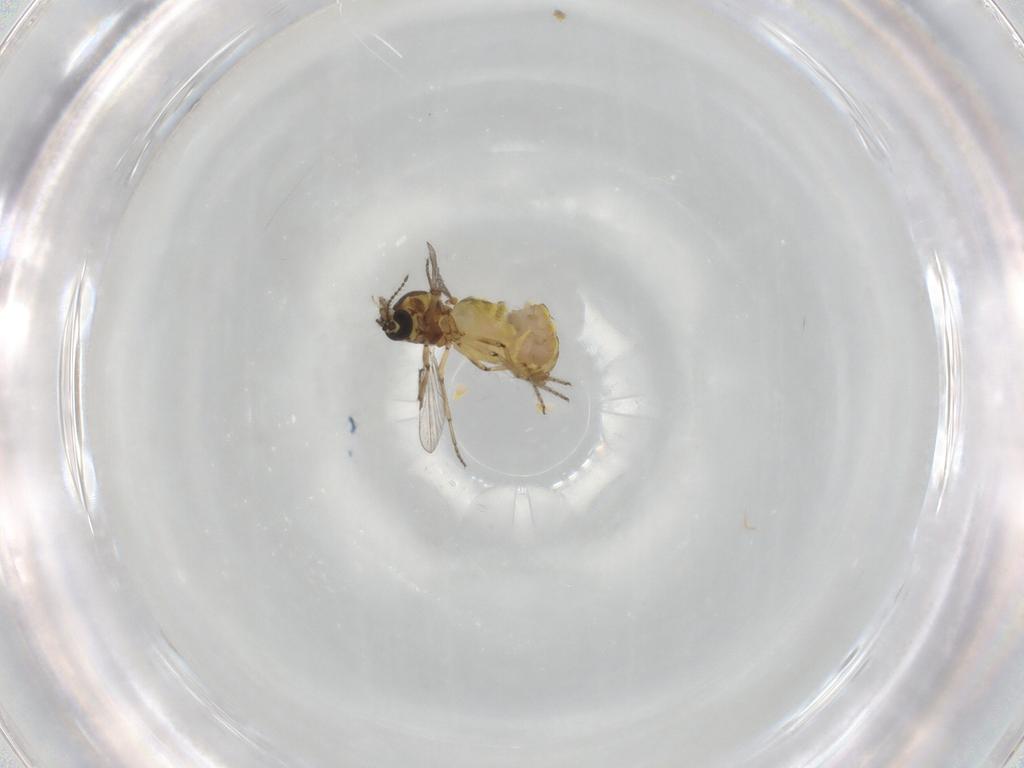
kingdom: Animalia
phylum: Arthropoda
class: Insecta
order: Diptera
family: Ceratopogonidae
